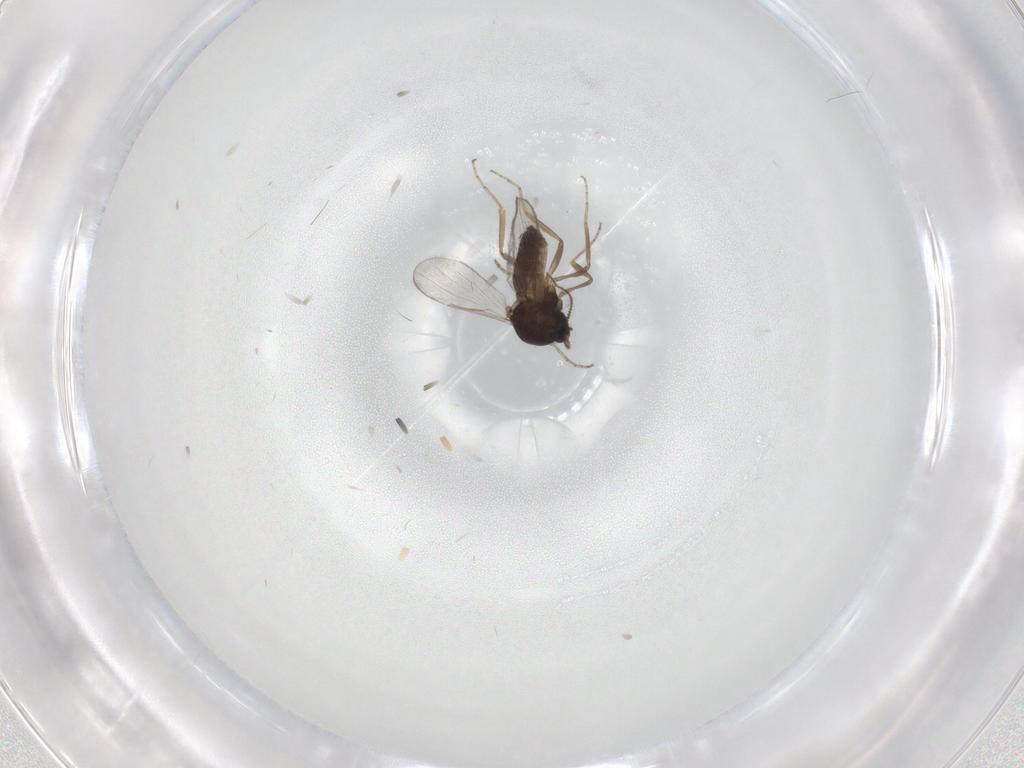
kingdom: Animalia
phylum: Arthropoda
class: Insecta
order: Diptera
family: Ceratopogonidae
